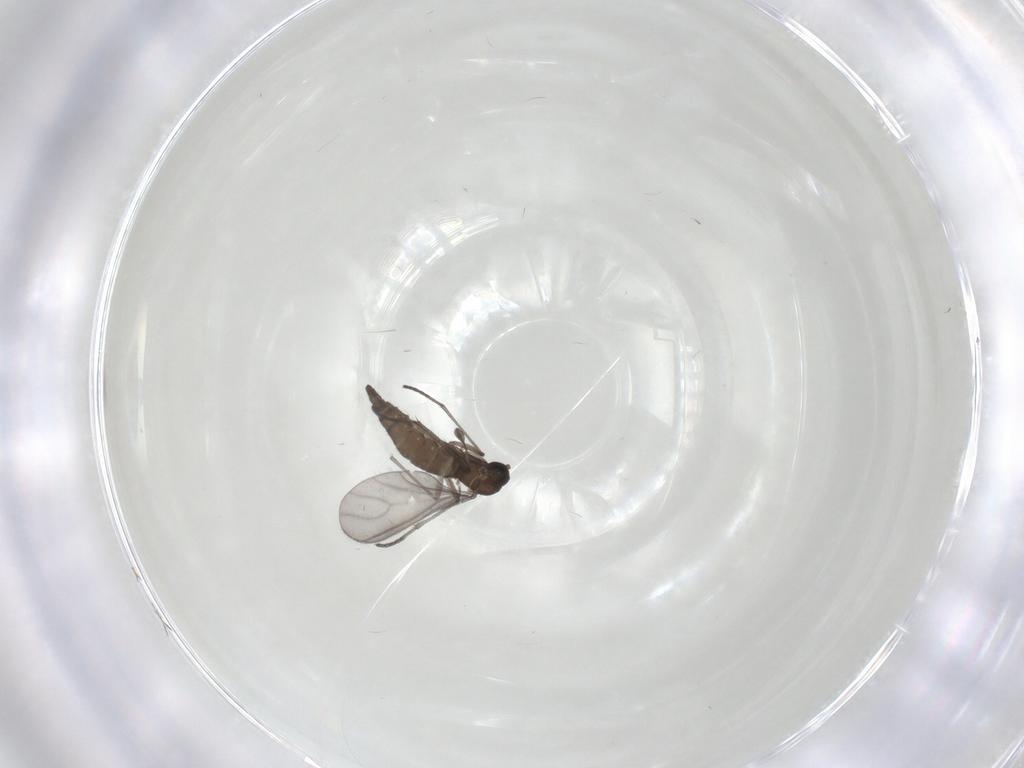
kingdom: Animalia
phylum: Arthropoda
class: Insecta
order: Diptera
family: Sciaridae
